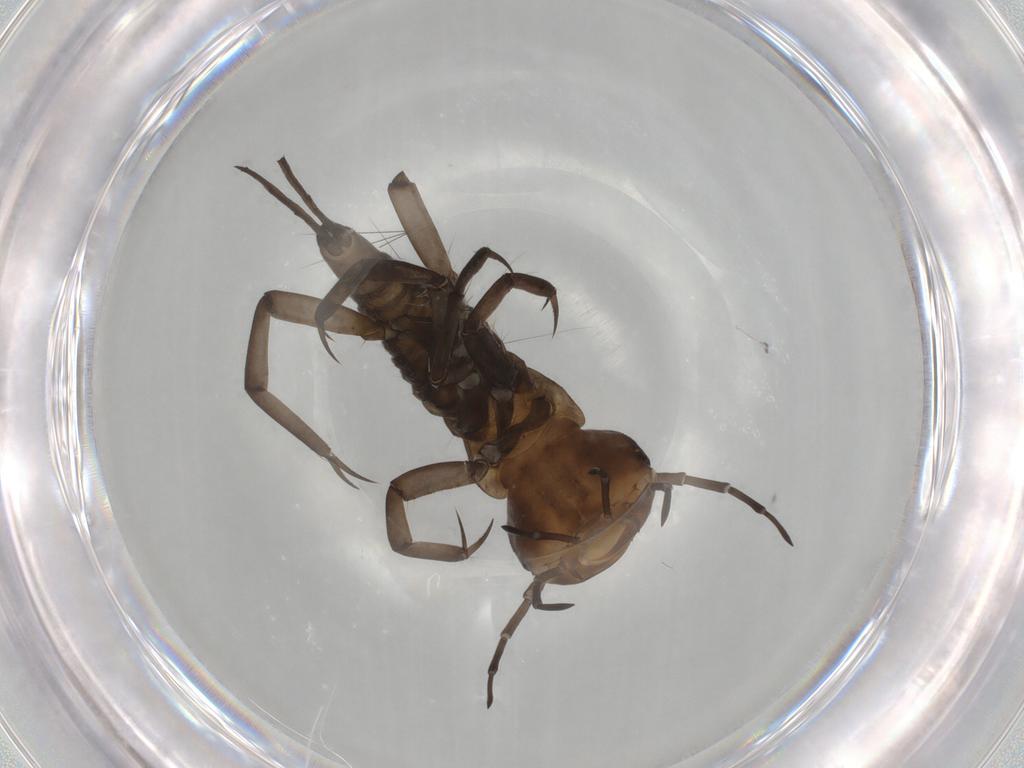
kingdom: Animalia
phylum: Arthropoda
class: Insecta
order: Coleoptera
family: Dytiscidae
